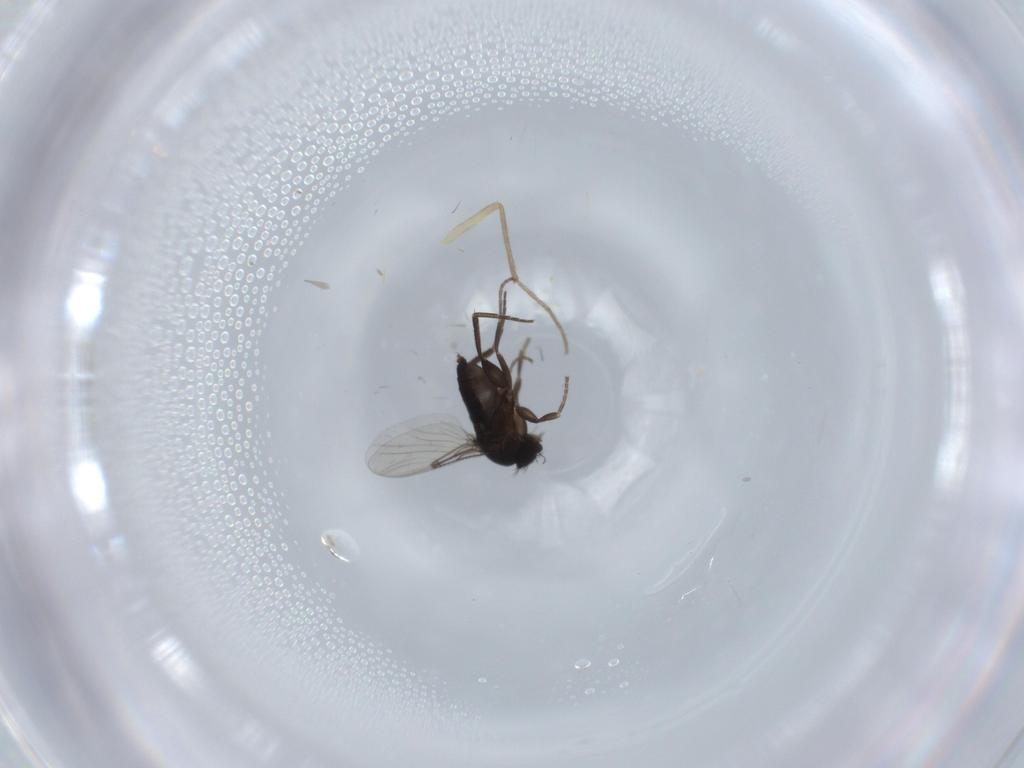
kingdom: Animalia
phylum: Arthropoda
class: Insecta
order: Diptera
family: Phoridae
